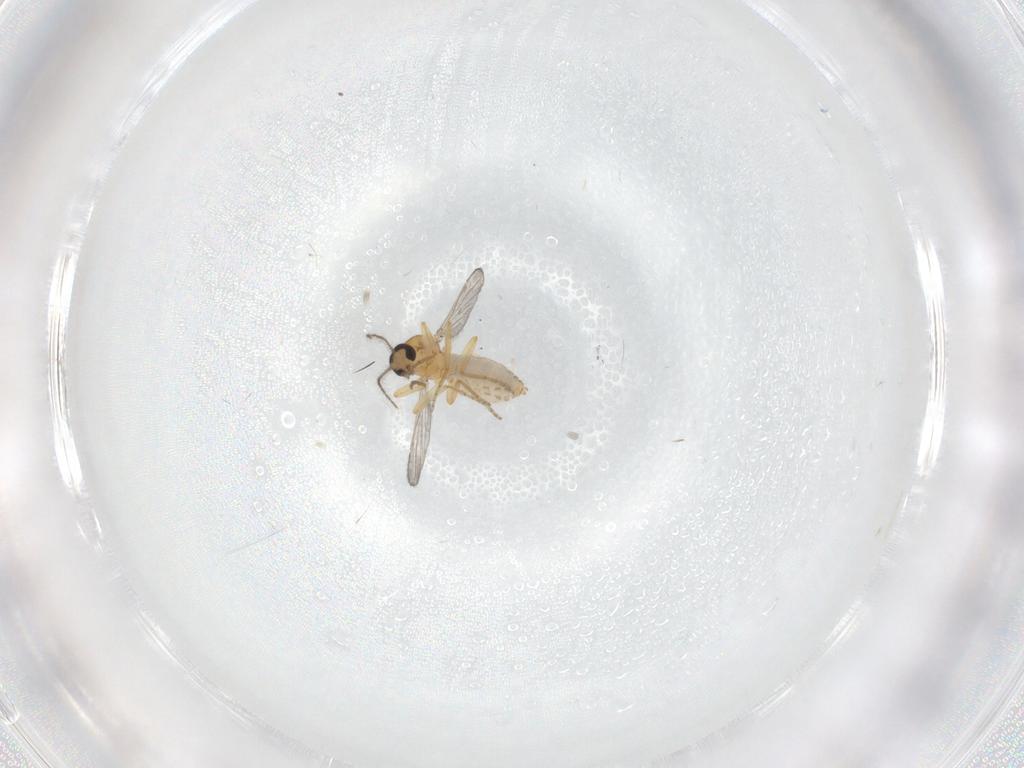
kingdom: Animalia
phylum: Arthropoda
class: Insecta
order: Diptera
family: Ceratopogonidae
